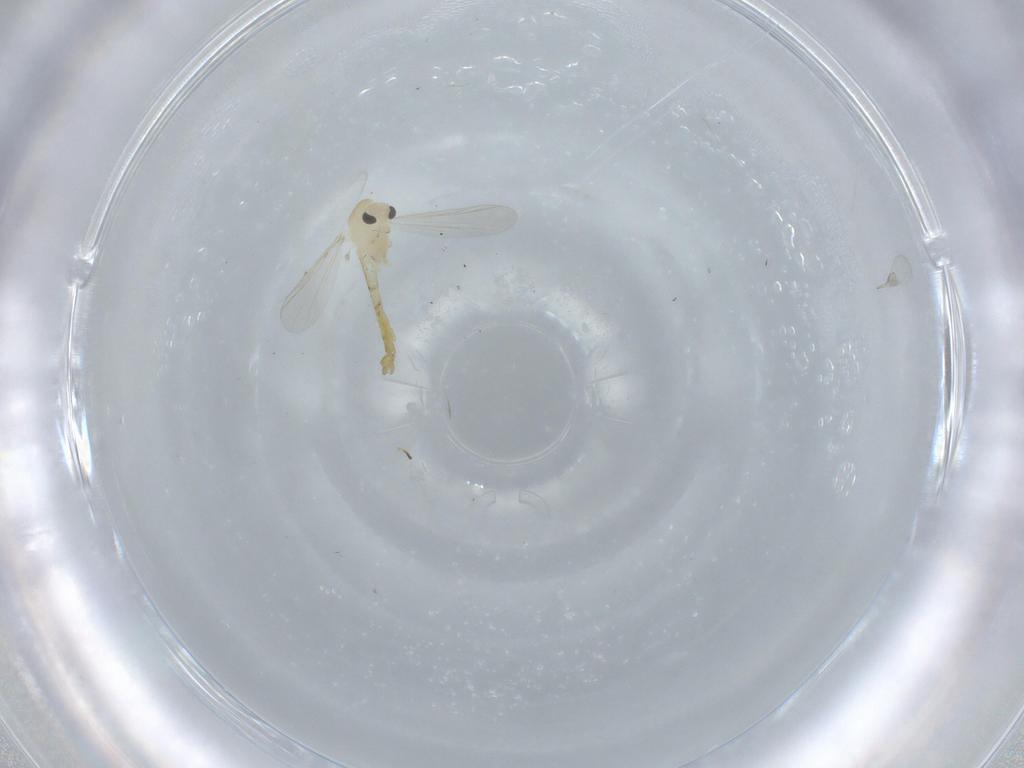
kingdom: Animalia
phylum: Arthropoda
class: Insecta
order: Diptera
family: Chironomidae
